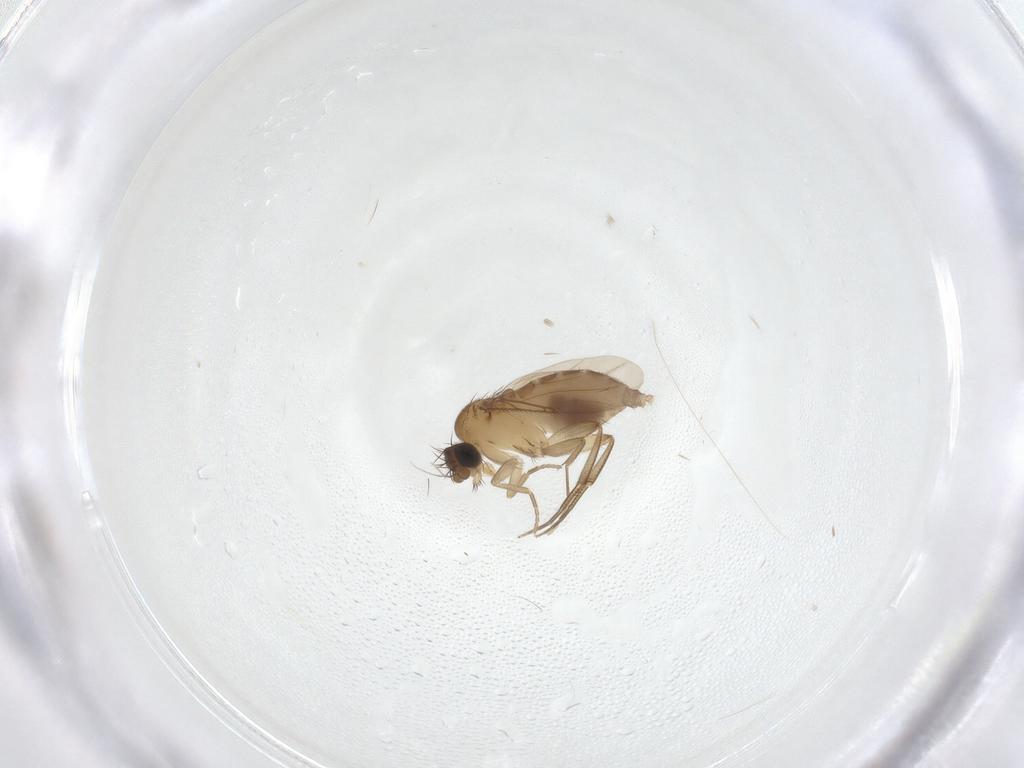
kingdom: Animalia
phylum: Arthropoda
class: Insecta
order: Diptera
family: Phoridae
